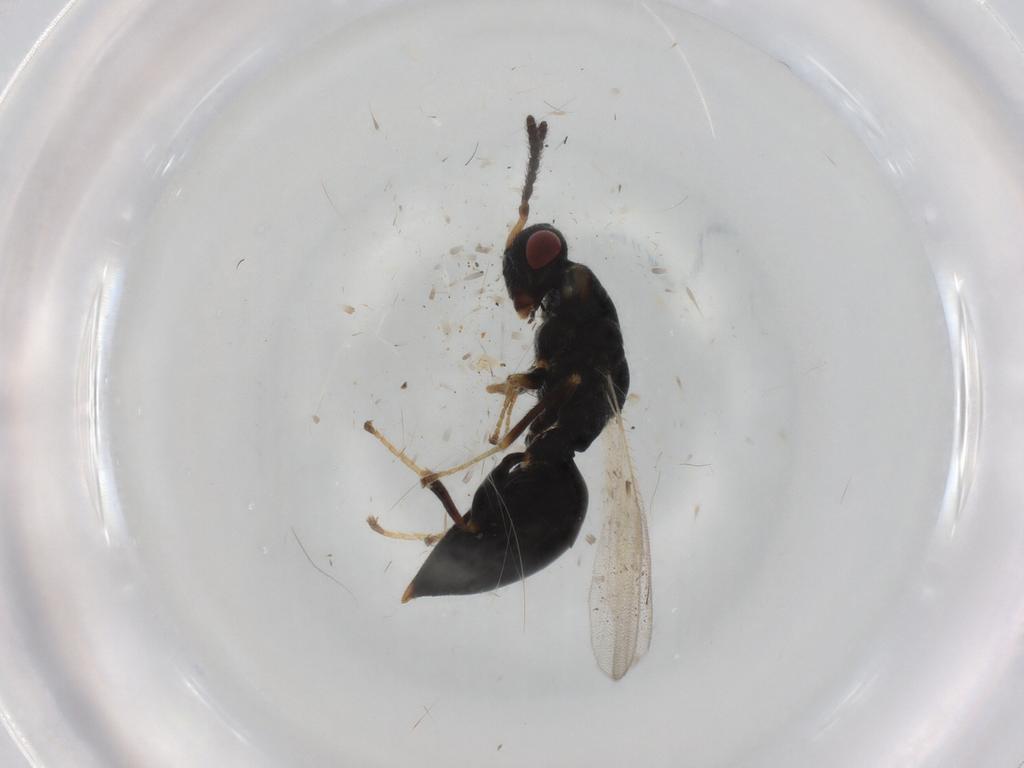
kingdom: Animalia
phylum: Arthropoda
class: Insecta
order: Hymenoptera
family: Eurytomidae
